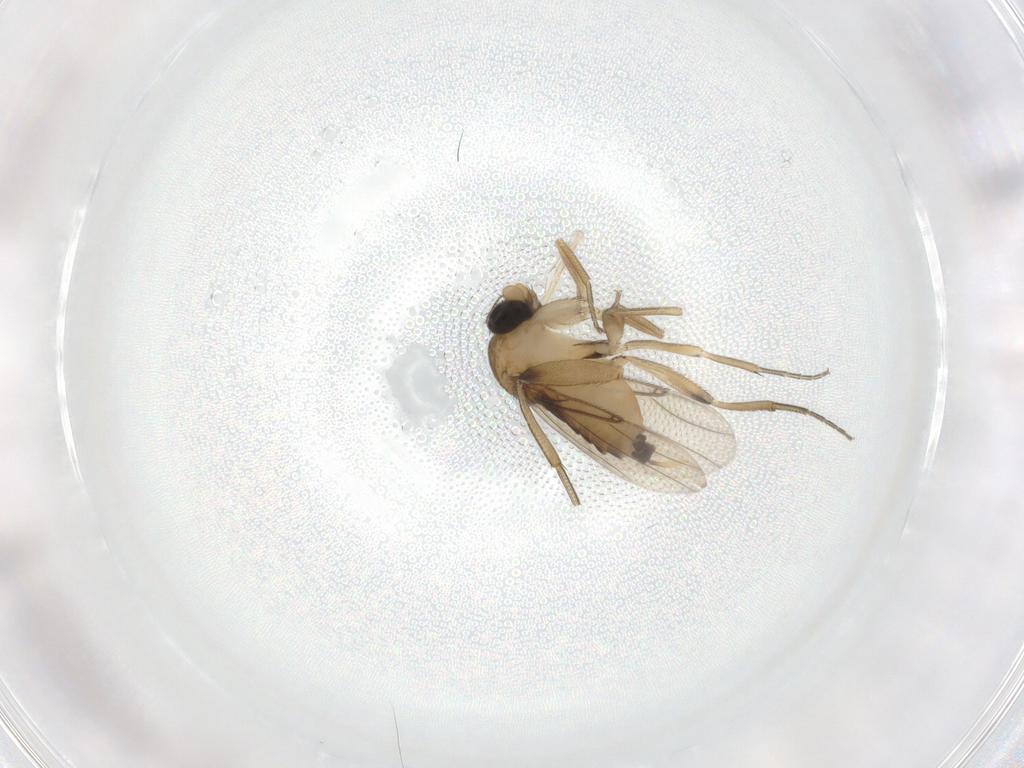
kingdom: Animalia
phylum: Arthropoda
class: Insecta
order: Diptera
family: Phoridae
